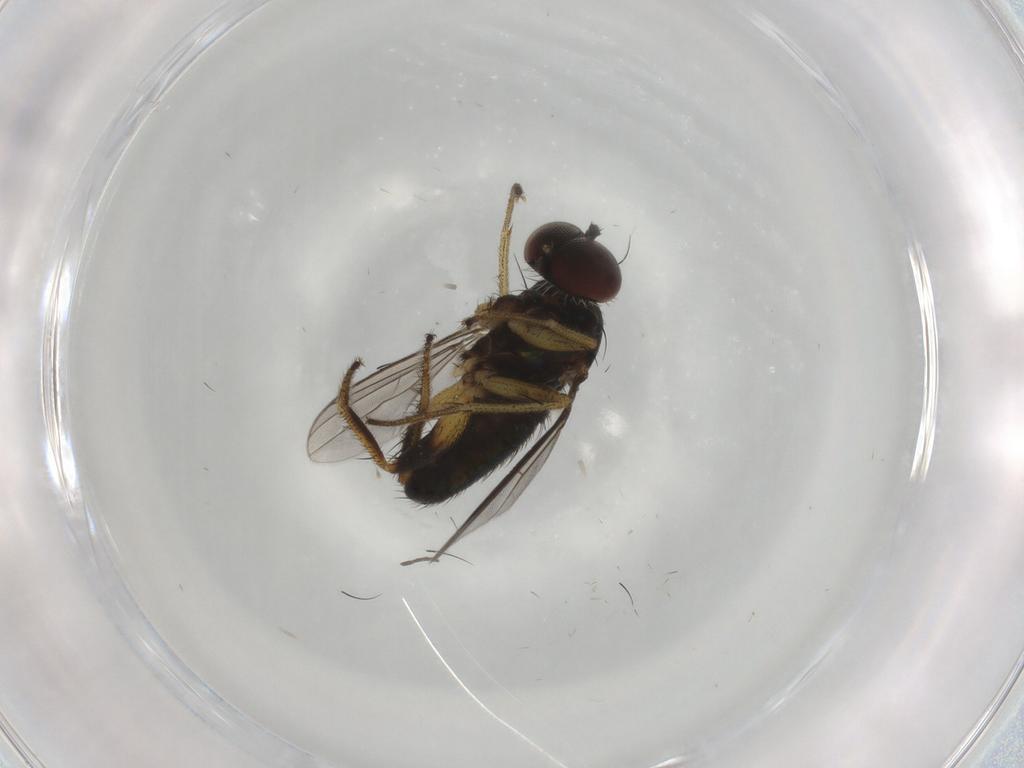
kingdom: Animalia
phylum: Arthropoda
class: Insecta
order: Diptera
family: Dolichopodidae
